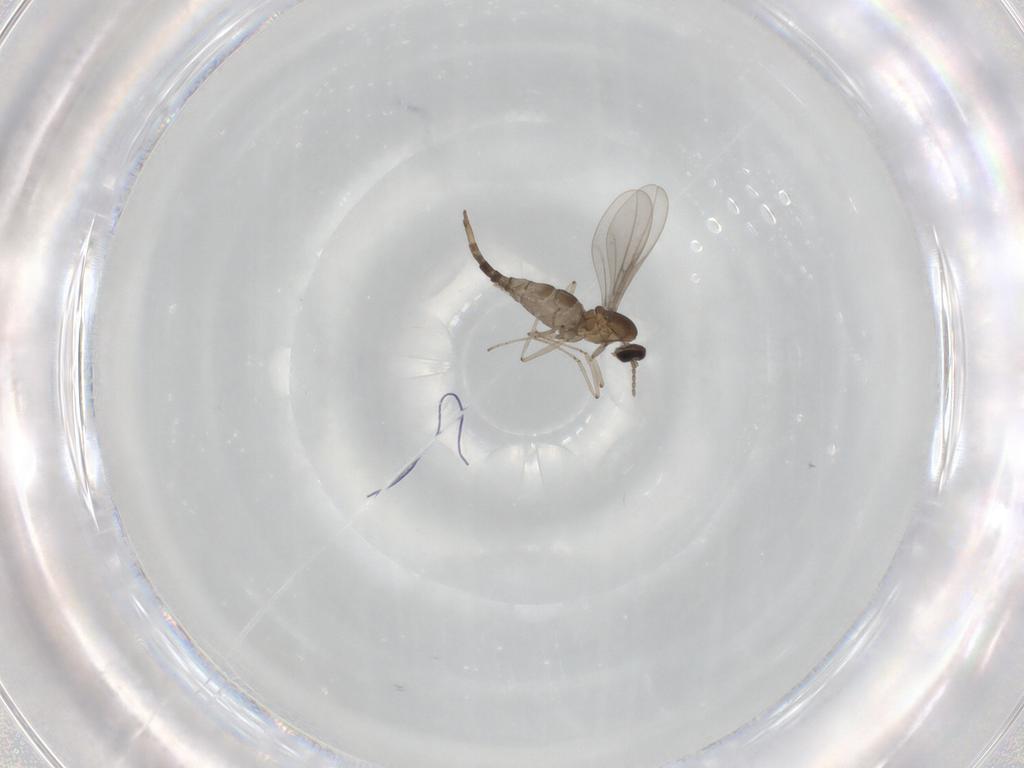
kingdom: Animalia
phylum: Arthropoda
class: Insecta
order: Diptera
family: Cecidomyiidae
